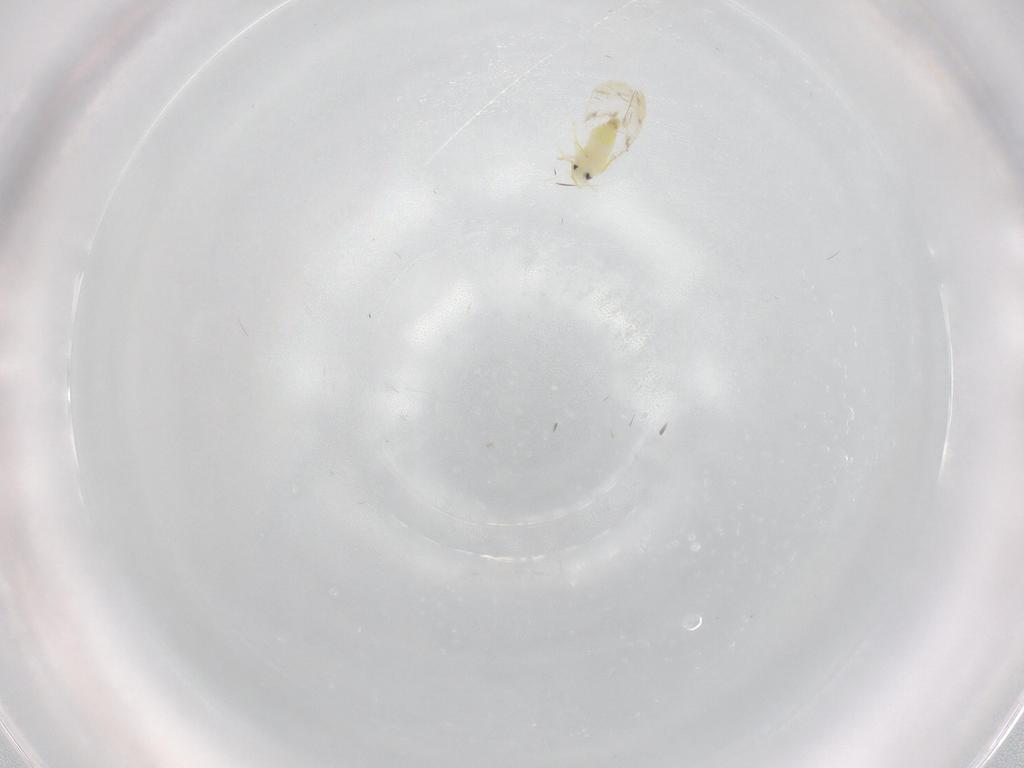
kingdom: Animalia
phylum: Arthropoda
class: Insecta
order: Hemiptera
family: Aleyrodidae
